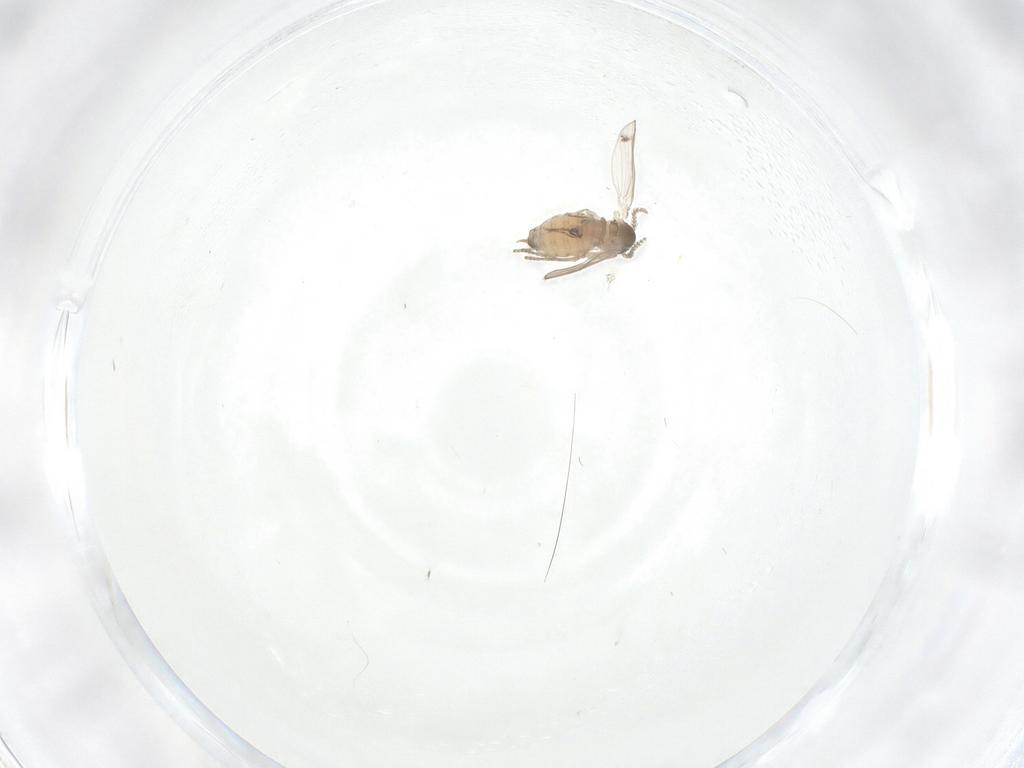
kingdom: Animalia
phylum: Arthropoda
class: Insecta
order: Diptera
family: Psychodidae
